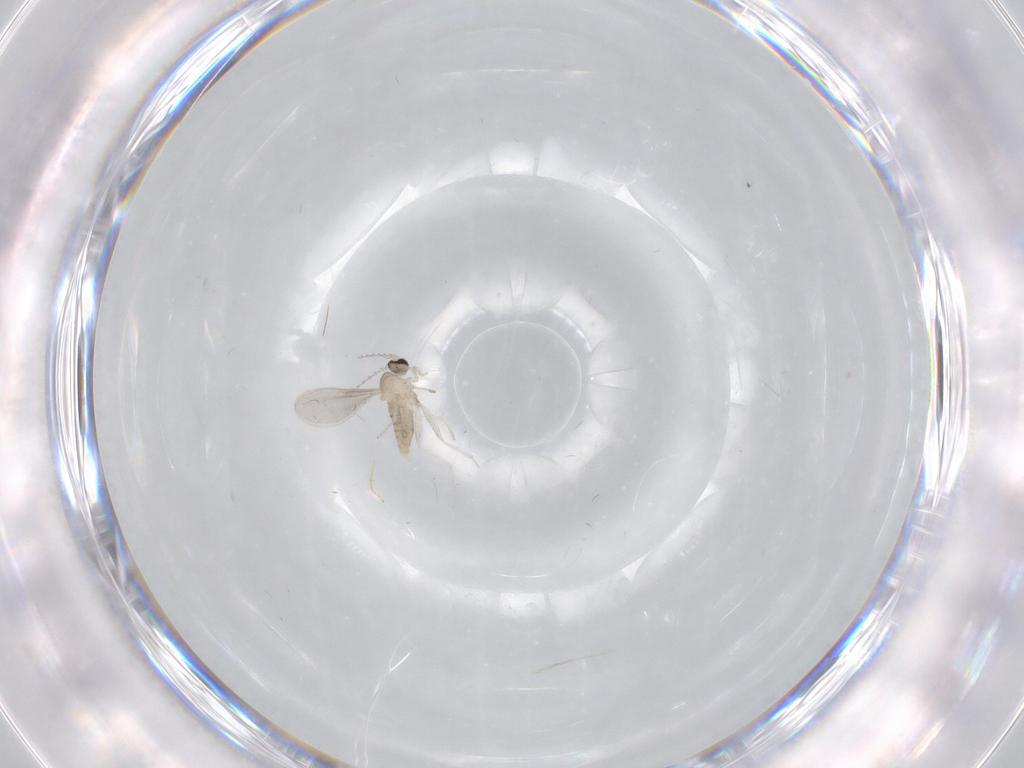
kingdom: Animalia
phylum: Arthropoda
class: Insecta
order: Diptera
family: Cecidomyiidae
